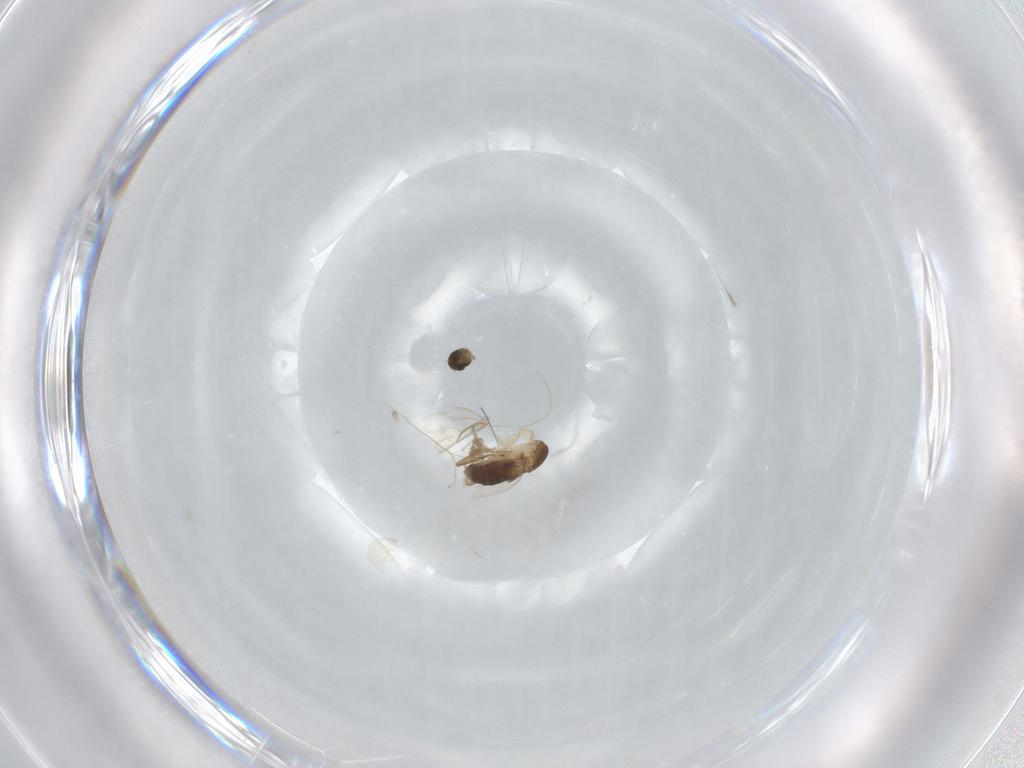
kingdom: Animalia
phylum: Arthropoda
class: Insecta
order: Diptera
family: Phoridae
